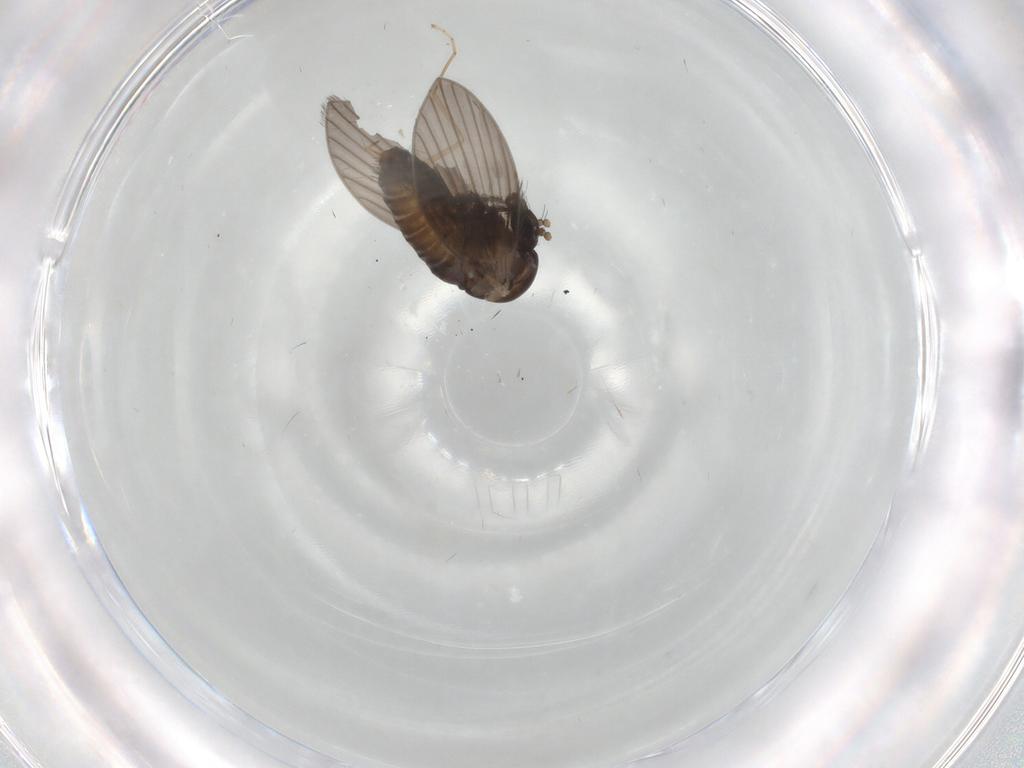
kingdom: Animalia
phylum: Arthropoda
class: Insecta
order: Diptera
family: Psychodidae
